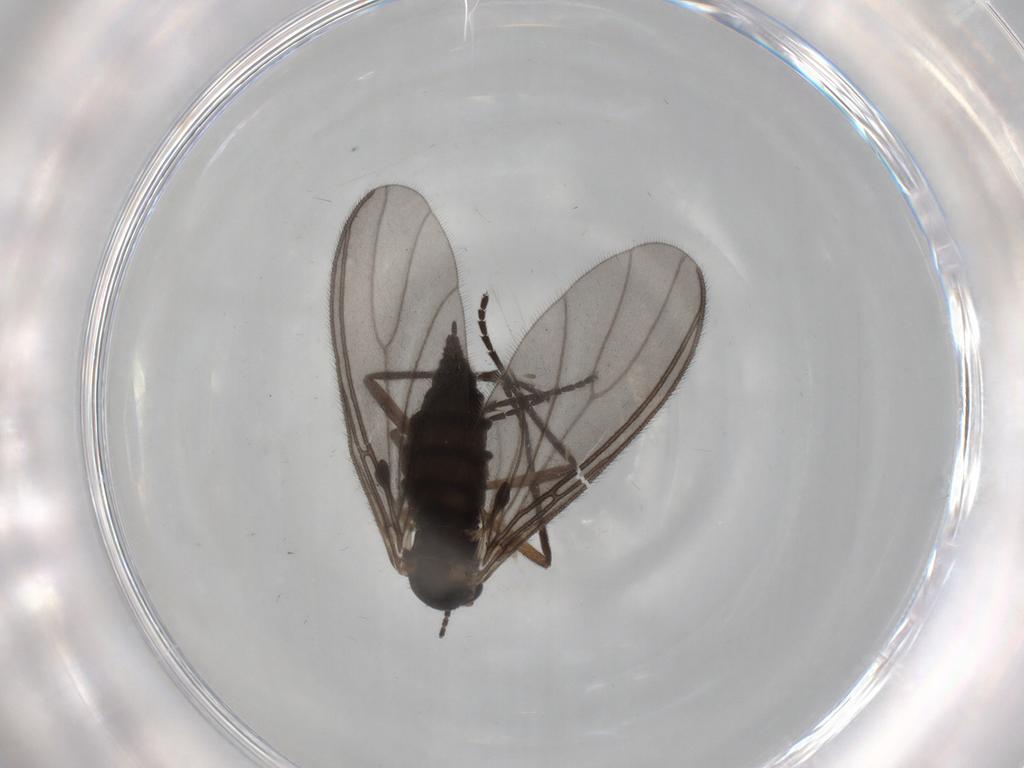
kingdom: Animalia
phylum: Arthropoda
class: Insecta
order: Diptera
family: Sciaridae
